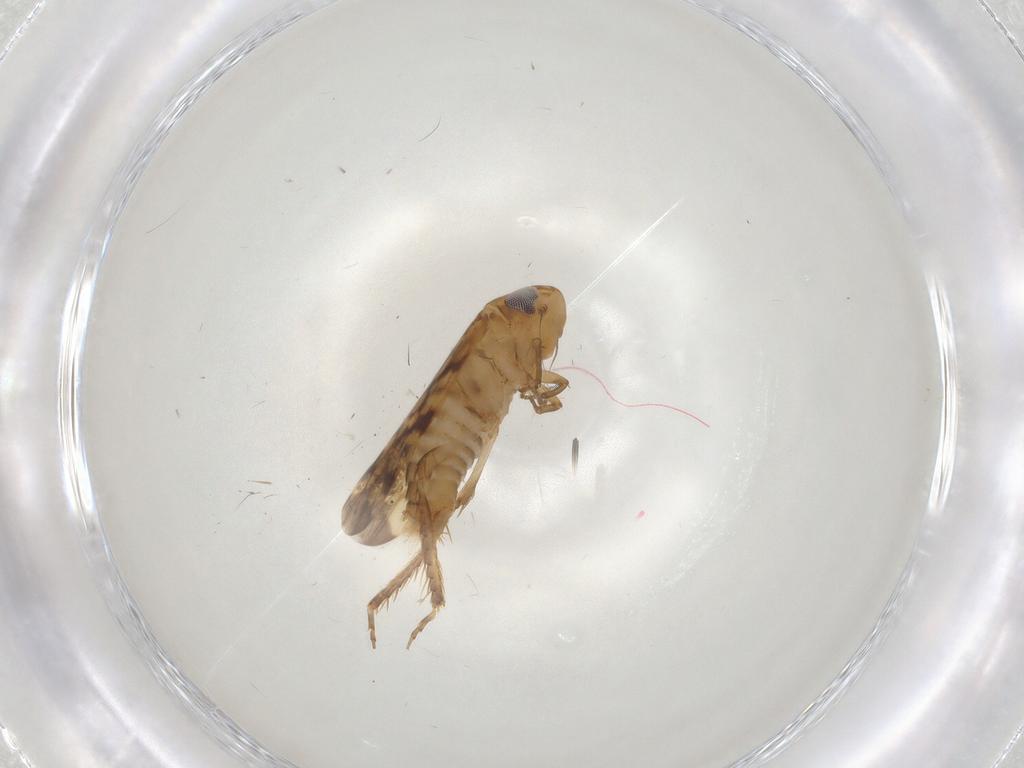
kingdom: Animalia
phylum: Arthropoda
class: Insecta
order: Hemiptera
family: Cicadellidae
